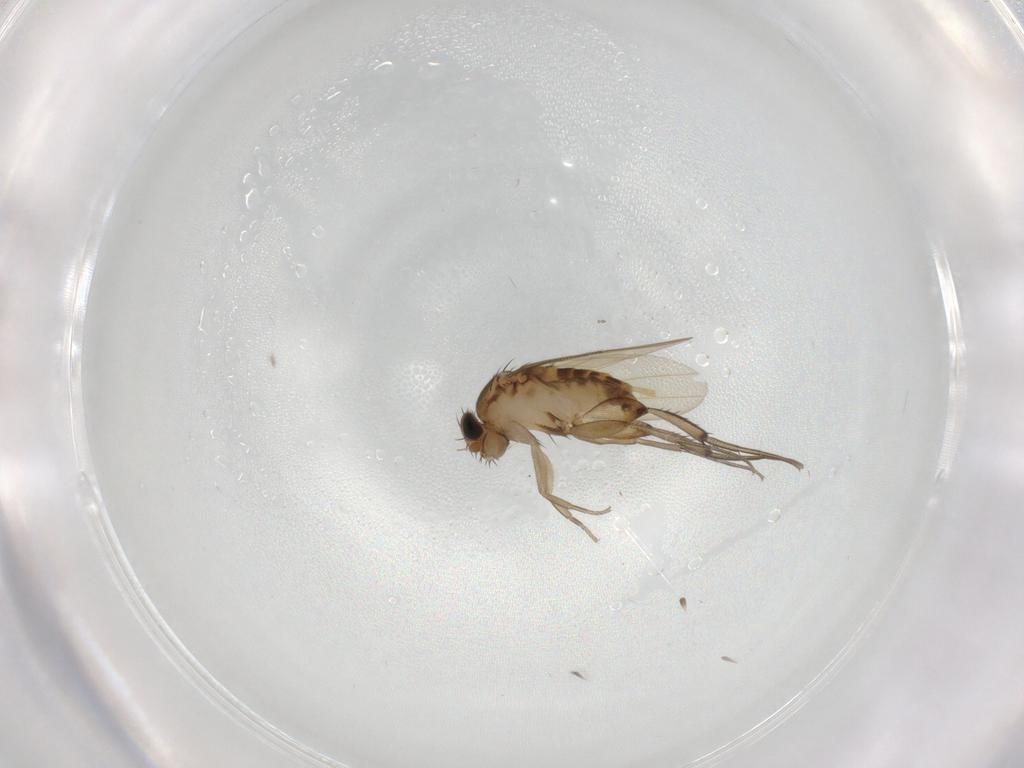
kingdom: Animalia
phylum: Arthropoda
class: Insecta
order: Diptera
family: Phoridae
